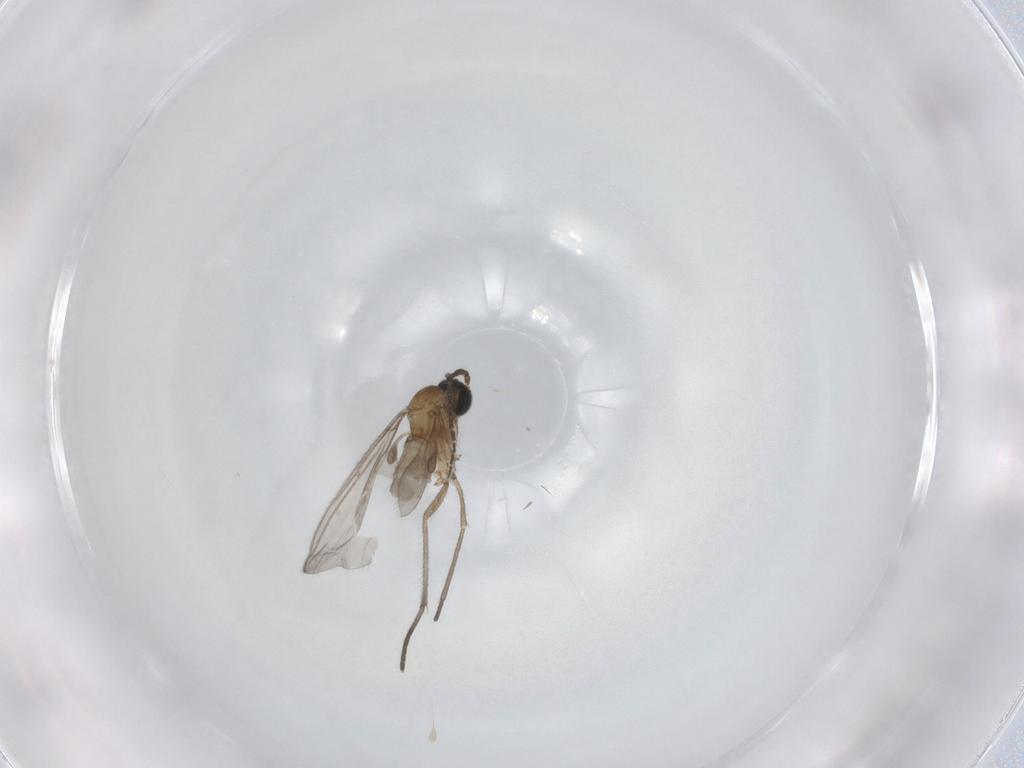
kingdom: Animalia
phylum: Arthropoda
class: Insecta
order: Diptera
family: Sciaridae
